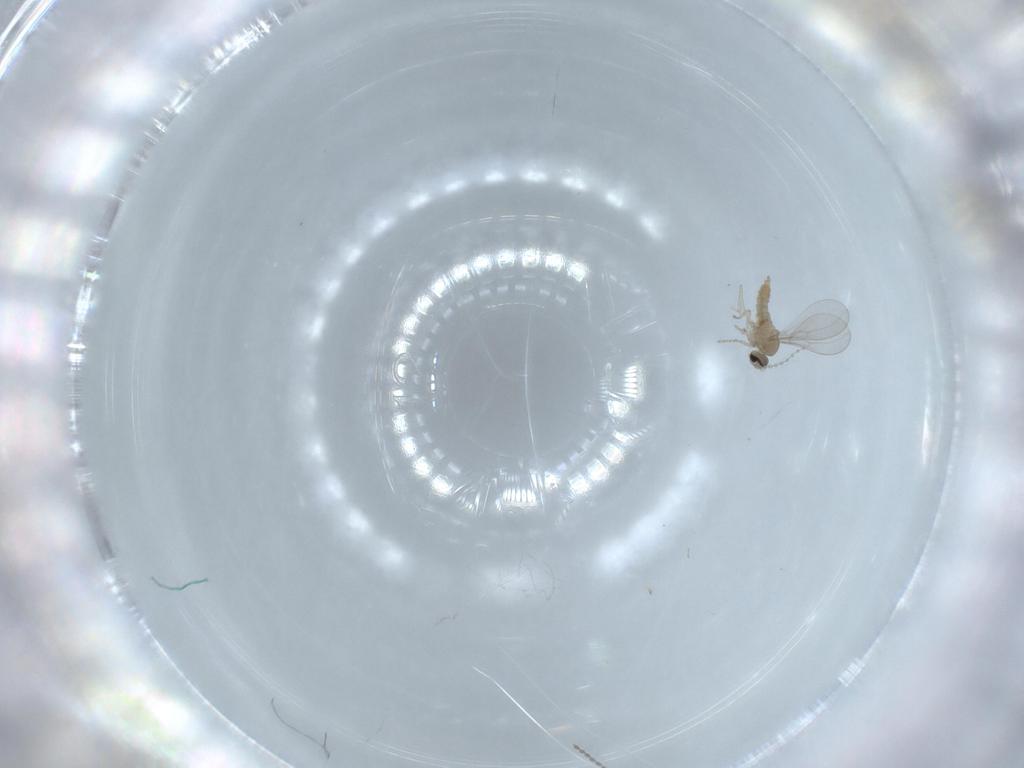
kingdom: Animalia
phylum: Arthropoda
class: Insecta
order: Diptera
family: Cecidomyiidae
